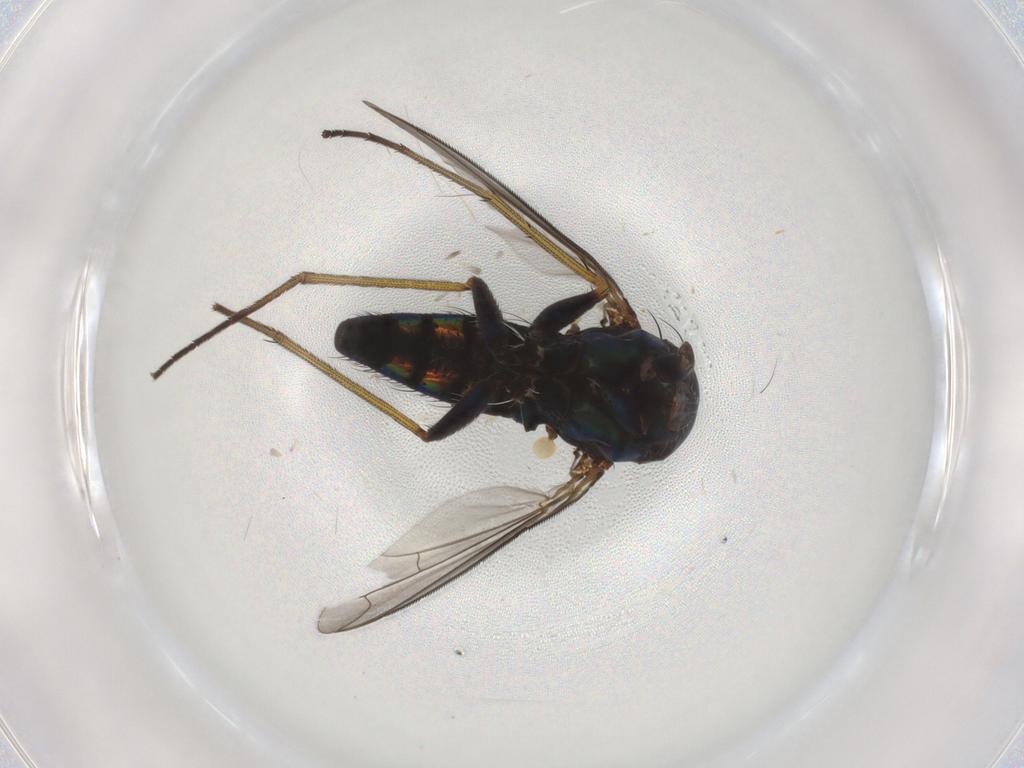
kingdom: Animalia
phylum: Arthropoda
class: Insecta
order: Diptera
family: Dolichopodidae
